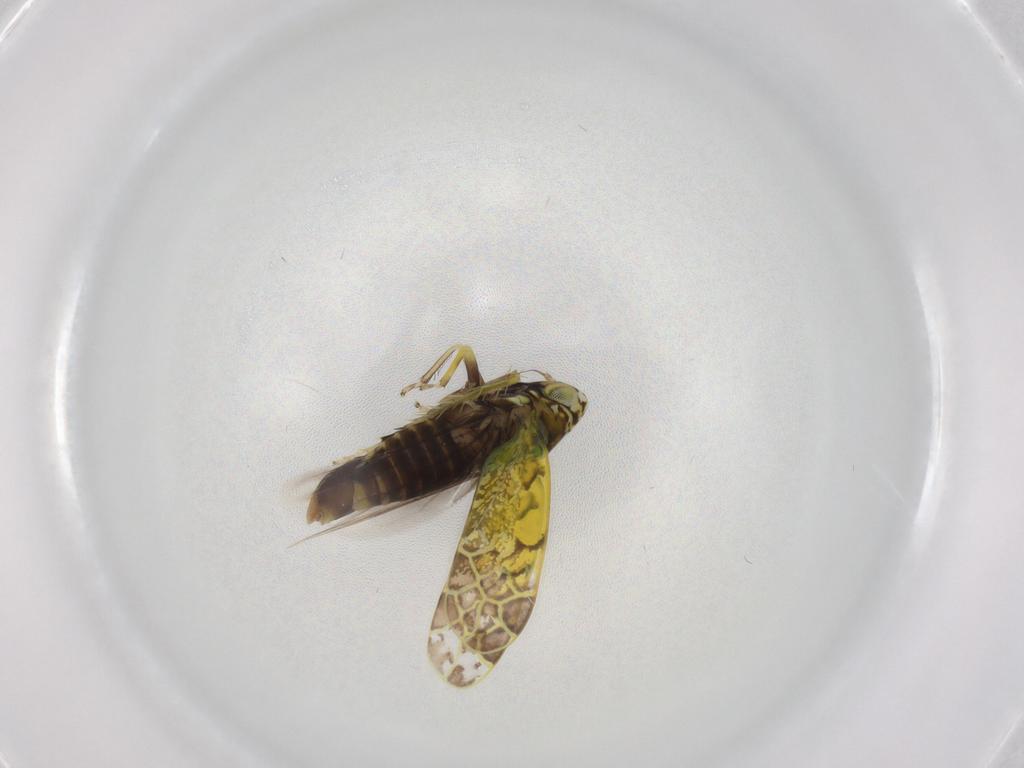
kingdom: Animalia
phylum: Arthropoda
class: Insecta
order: Hemiptera
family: Cicadellidae
